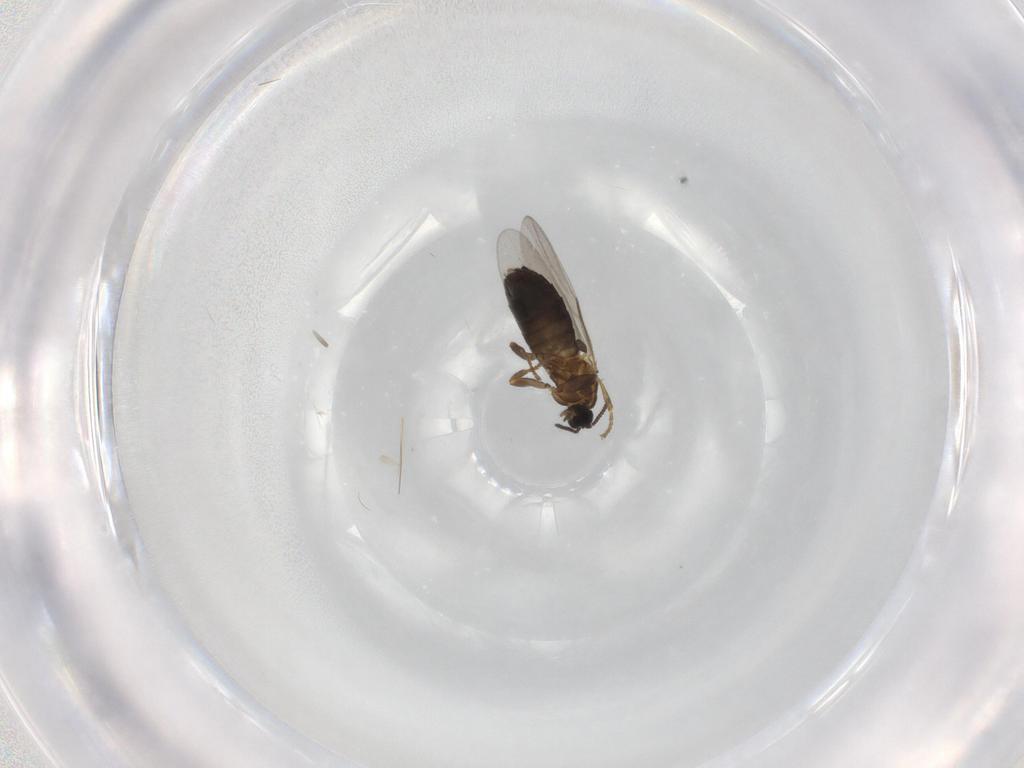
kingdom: Animalia
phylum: Arthropoda
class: Insecta
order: Diptera
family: Scatopsidae
